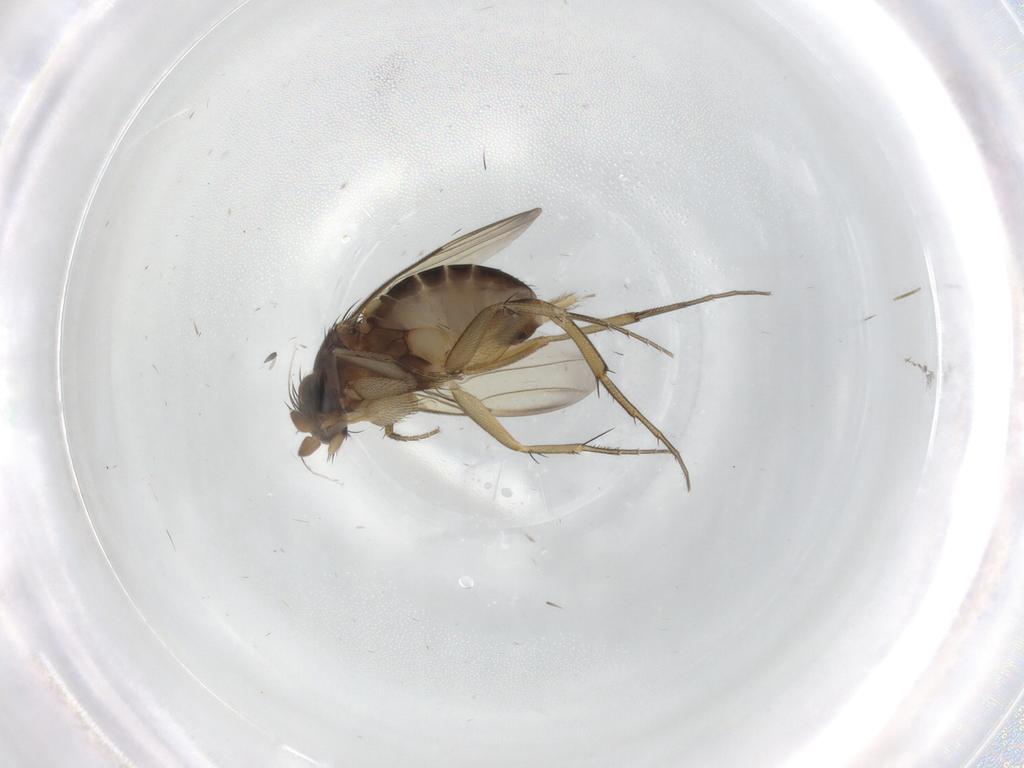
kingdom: Animalia
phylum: Arthropoda
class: Insecta
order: Diptera
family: Phoridae
